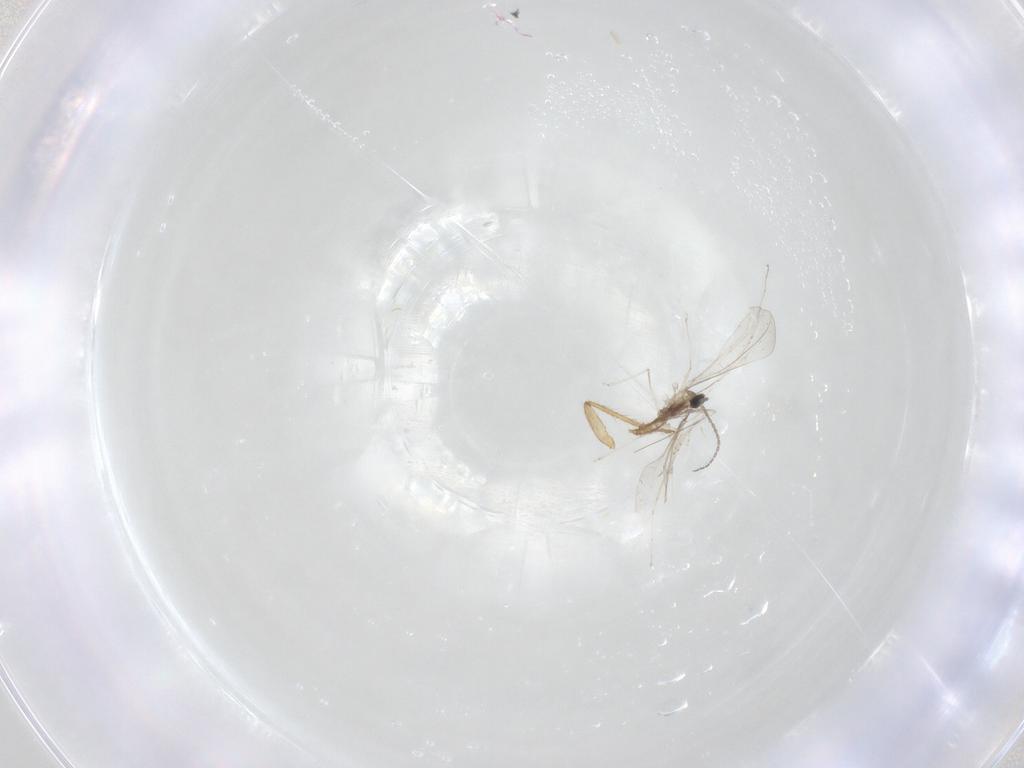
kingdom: Animalia
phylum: Arthropoda
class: Insecta
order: Diptera
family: Cecidomyiidae
